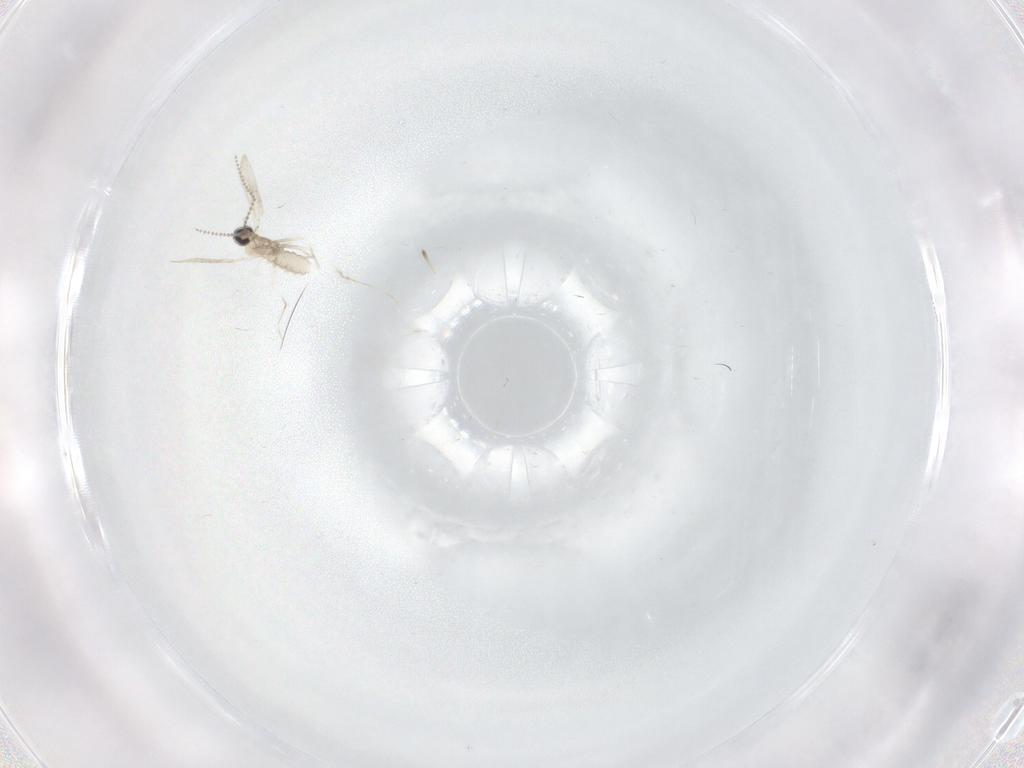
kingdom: Animalia
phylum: Arthropoda
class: Insecta
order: Diptera
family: Cecidomyiidae
